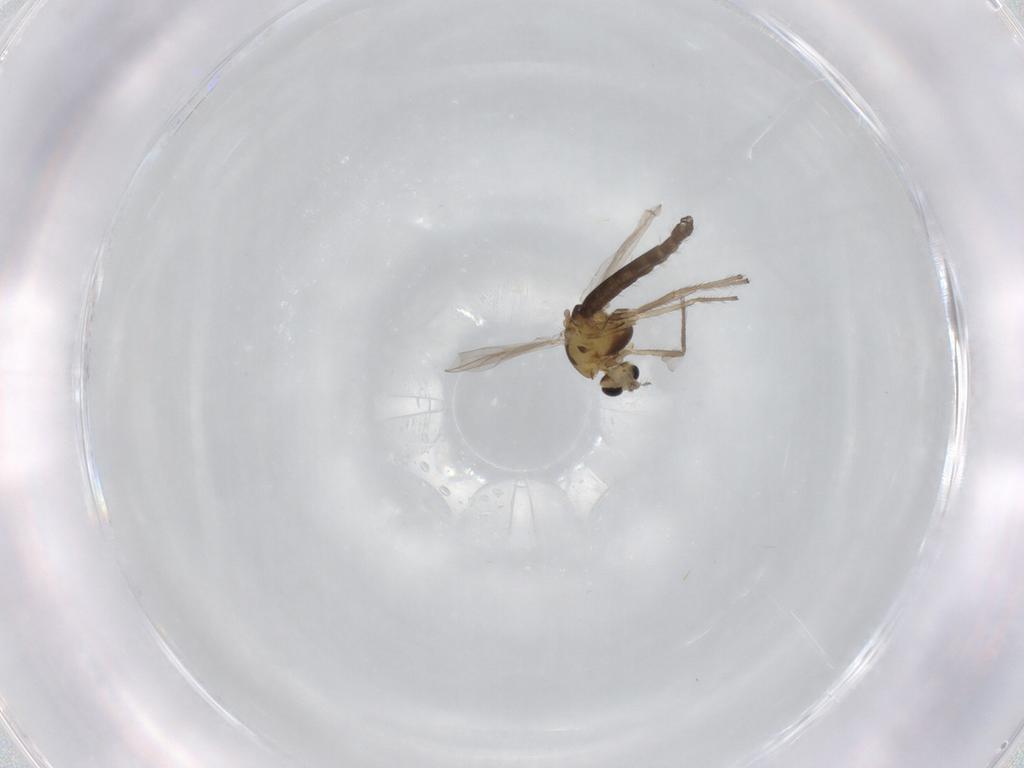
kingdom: Animalia
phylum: Arthropoda
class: Insecta
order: Diptera
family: Chironomidae
